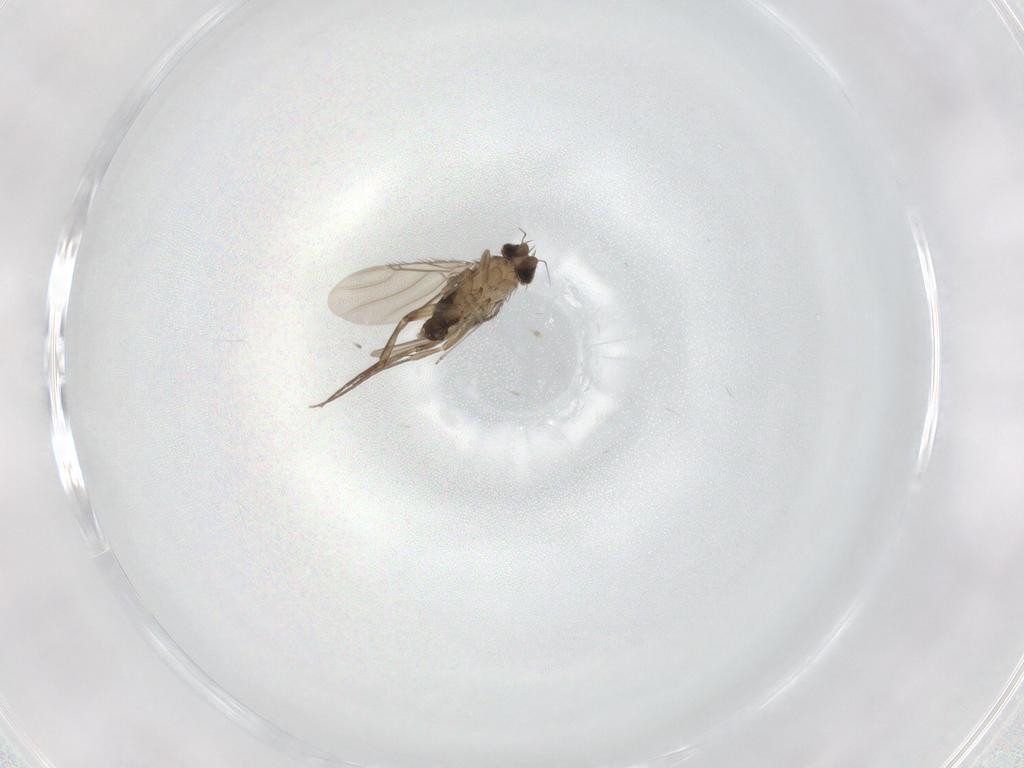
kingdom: Animalia
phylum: Arthropoda
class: Insecta
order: Diptera
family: Phoridae
